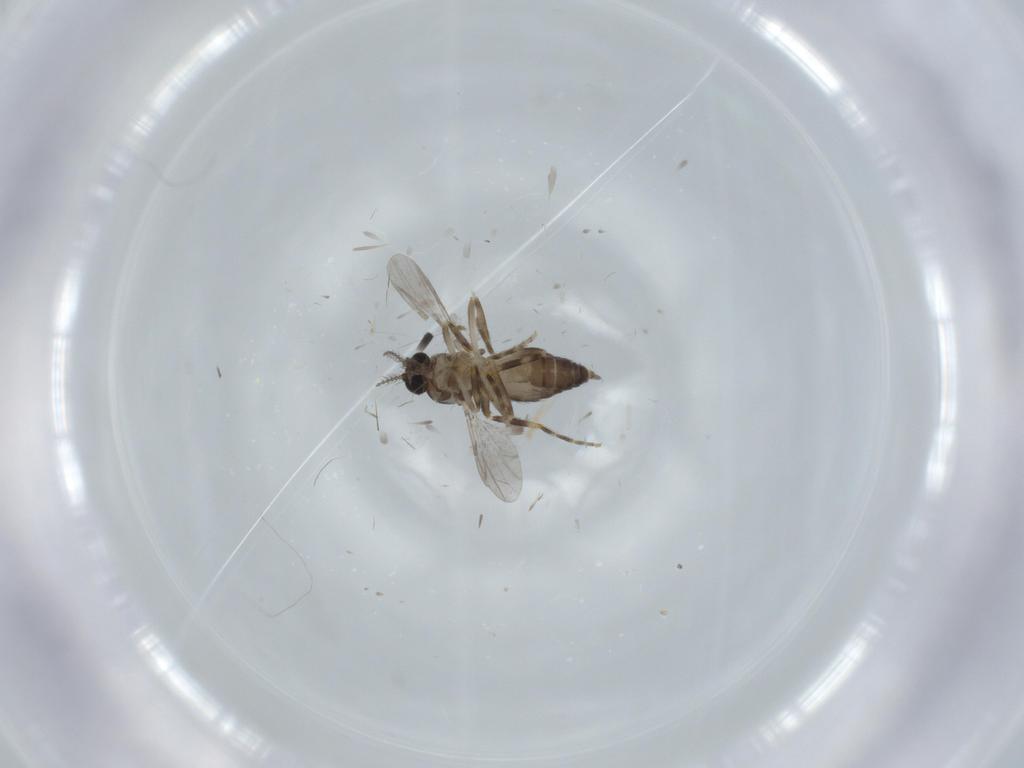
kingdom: Animalia
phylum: Arthropoda
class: Insecta
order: Diptera
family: Ceratopogonidae
